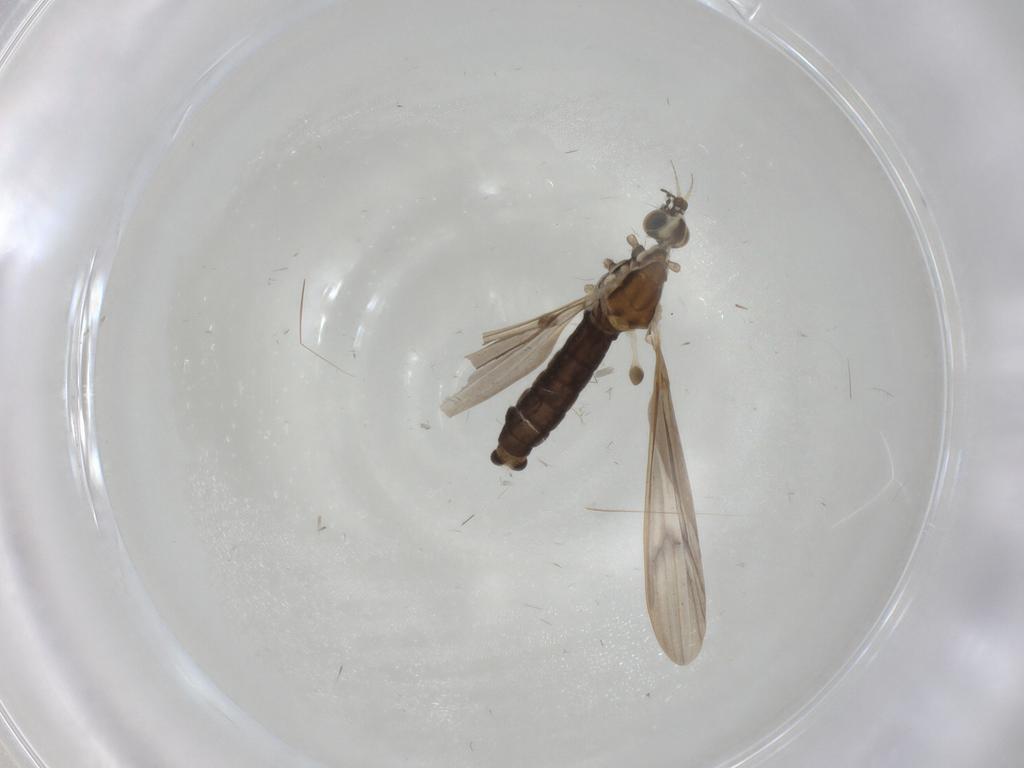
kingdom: Animalia
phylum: Arthropoda
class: Insecta
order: Diptera
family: Limoniidae
